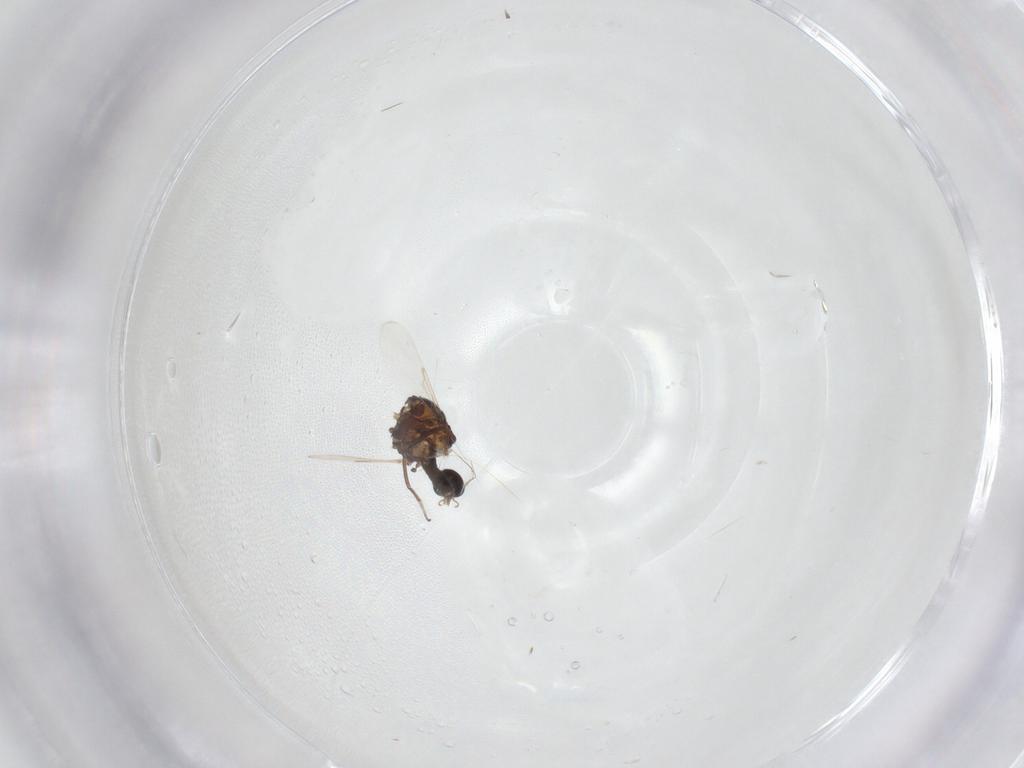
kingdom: Animalia
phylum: Arthropoda
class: Insecta
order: Diptera
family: Ceratopogonidae
